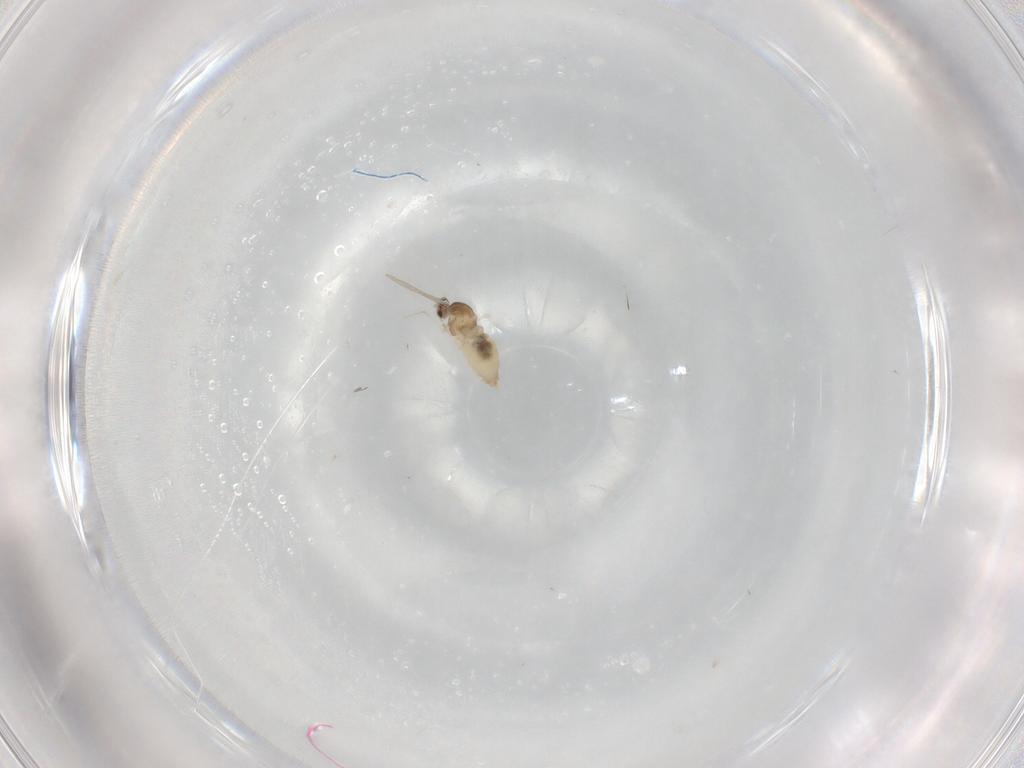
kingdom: Animalia
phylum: Arthropoda
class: Insecta
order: Diptera
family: Cecidomyiidae
